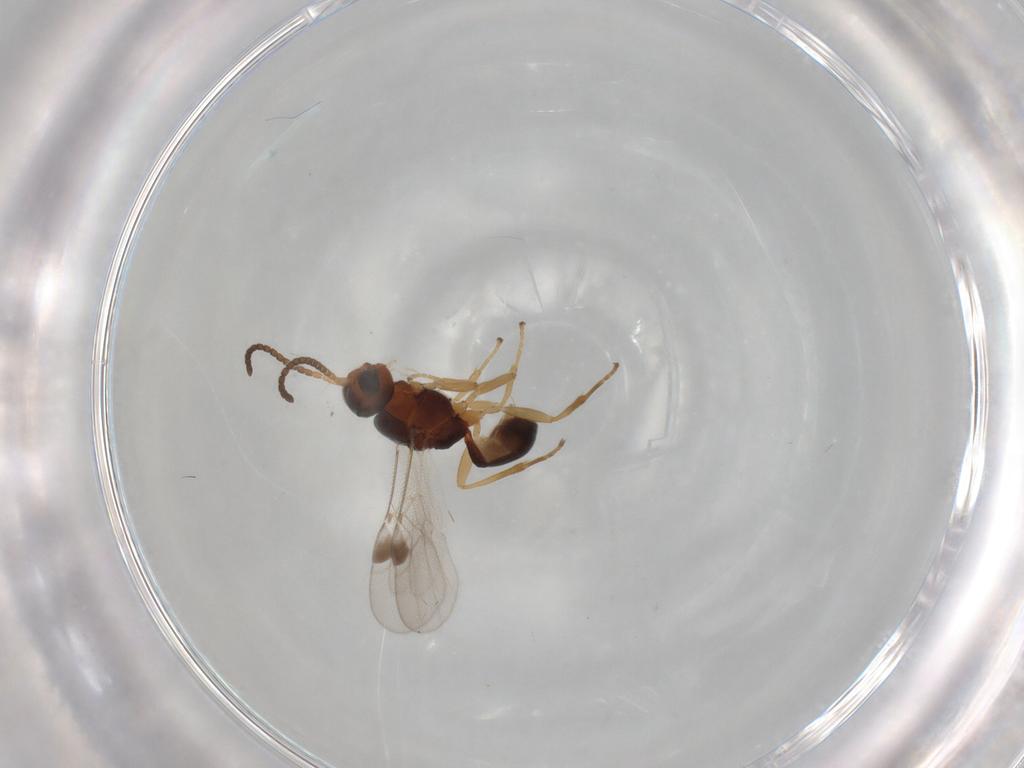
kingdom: Animalia
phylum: Arthropoda
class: Insecta
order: Hymenoptera
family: Braconidae
